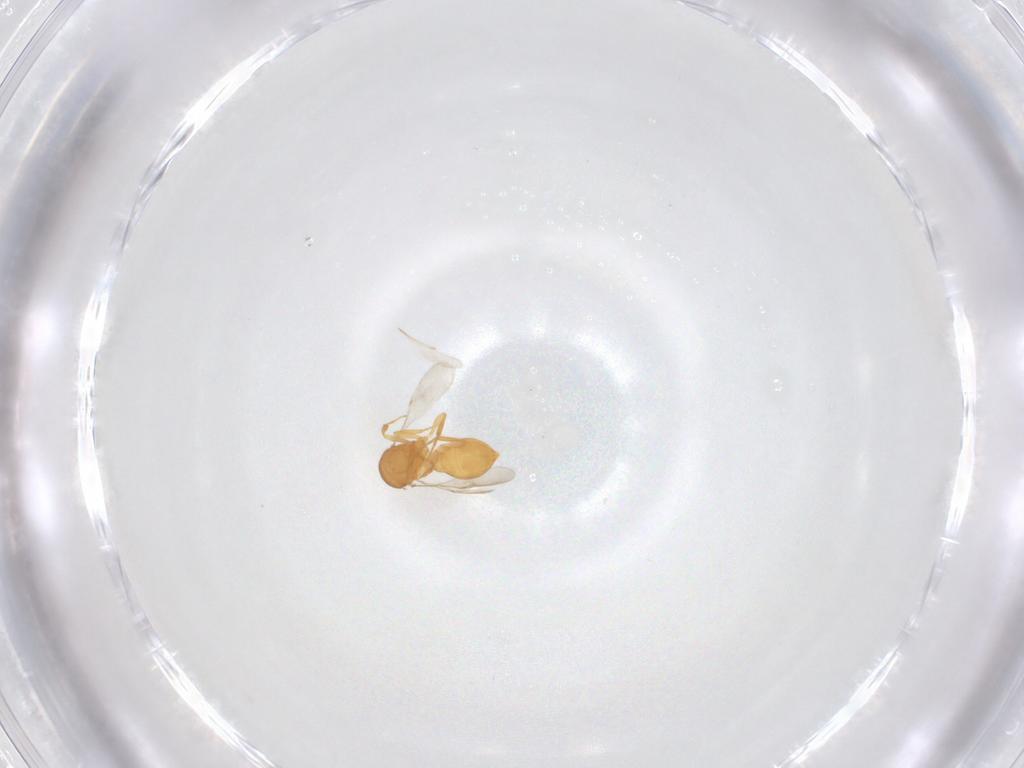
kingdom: Animalia
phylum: Arthropoda
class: Insecta
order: Hymenoptera
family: Scelionidae
